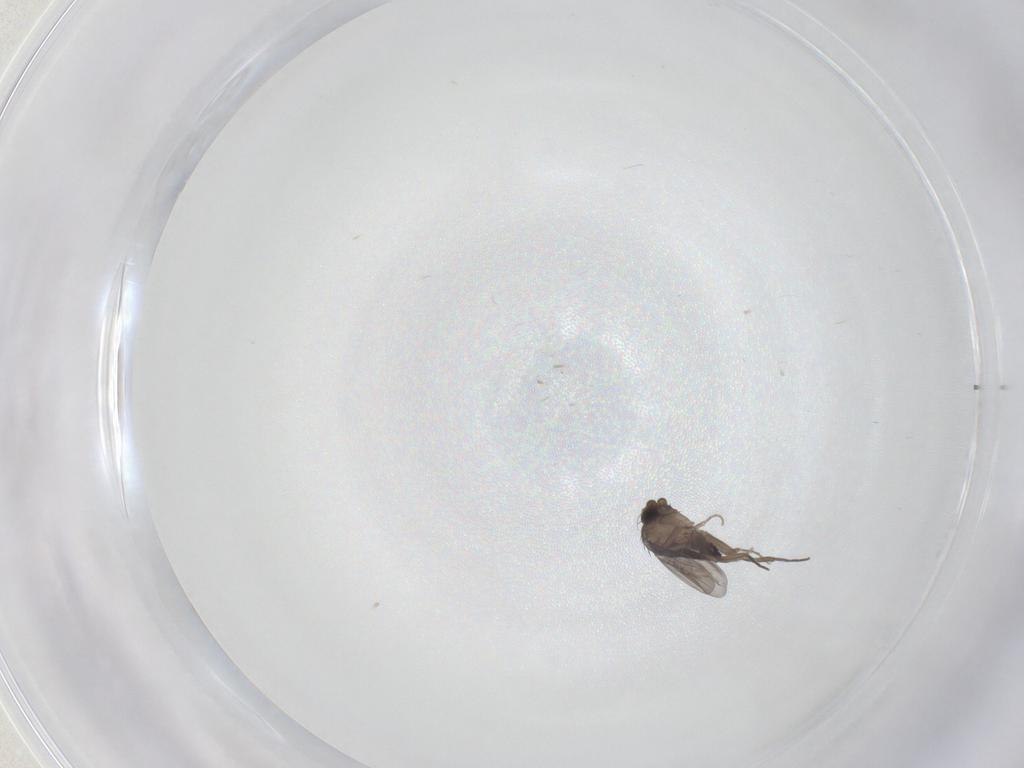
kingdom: Animalia
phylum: Arthropoda
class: Insecta
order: Diptera
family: Phoridae
